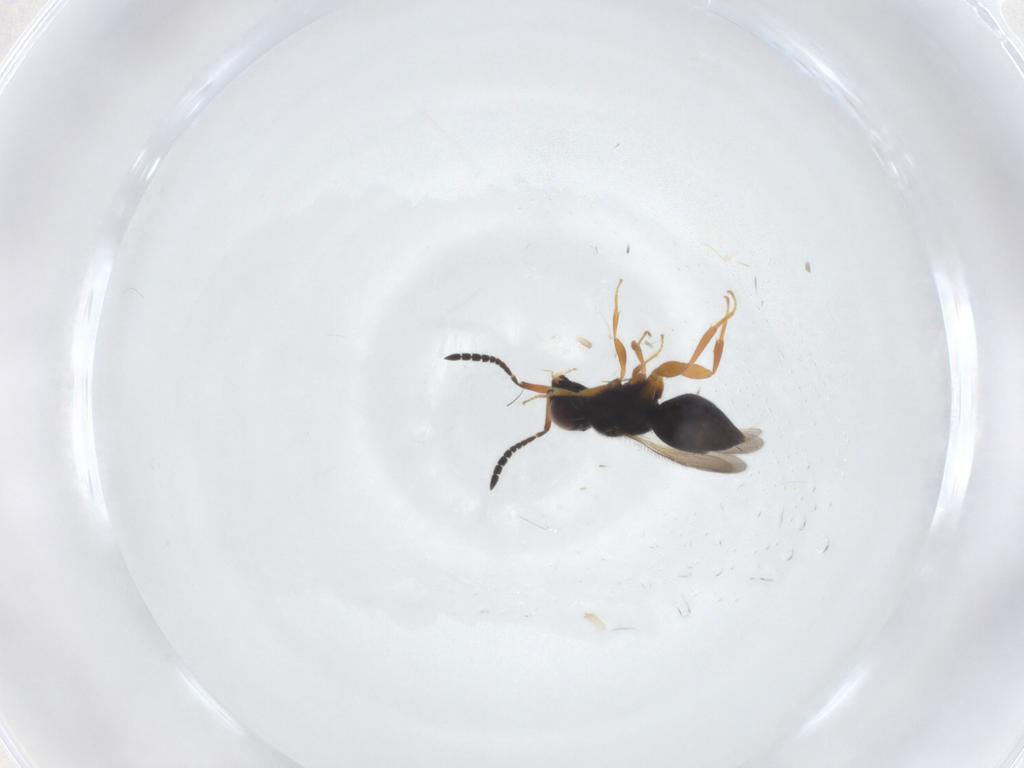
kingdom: Animalia
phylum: Arthropoda
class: Insecta
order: Hymenoptera
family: Ceraphronidae
